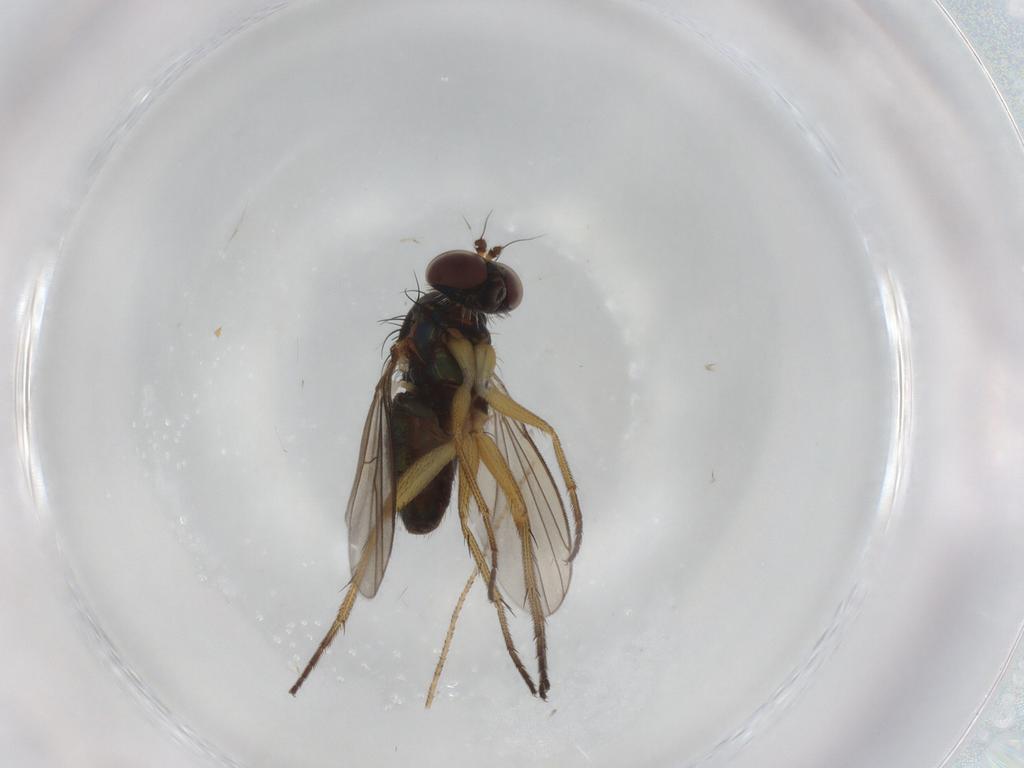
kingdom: Animalia
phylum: Arthropoda
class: Insecta
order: Diptera
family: Dolichopodidae
